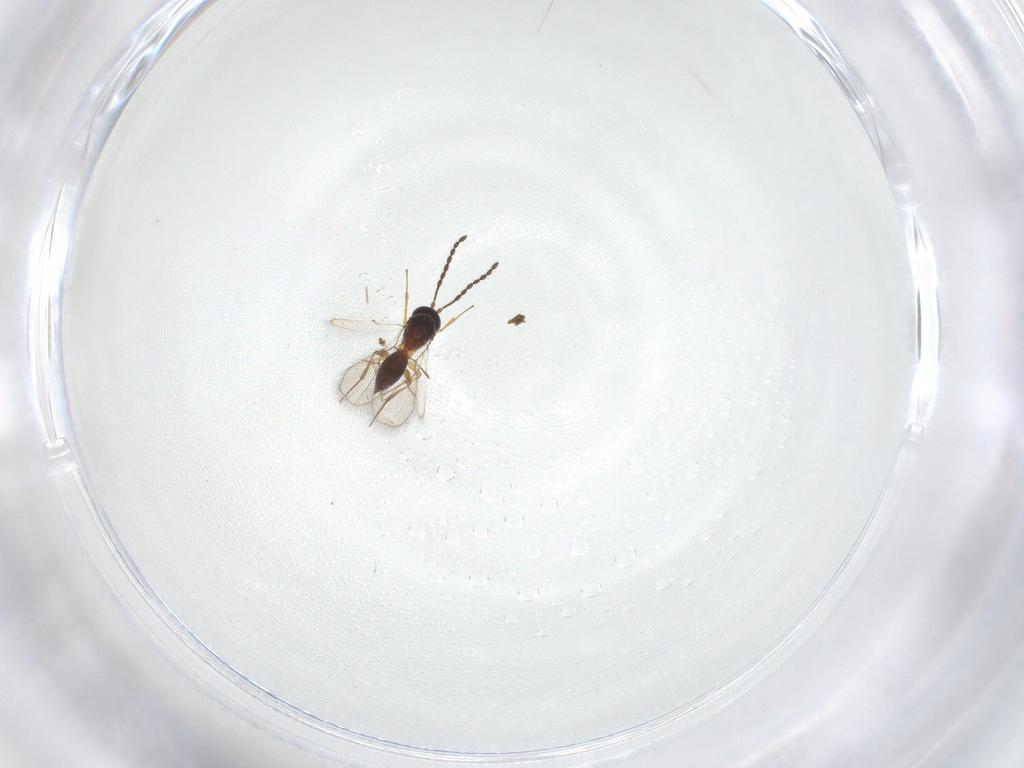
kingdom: Animalia
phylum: Arthropoda
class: Insecta
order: Hymenoptera
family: Figitidae
